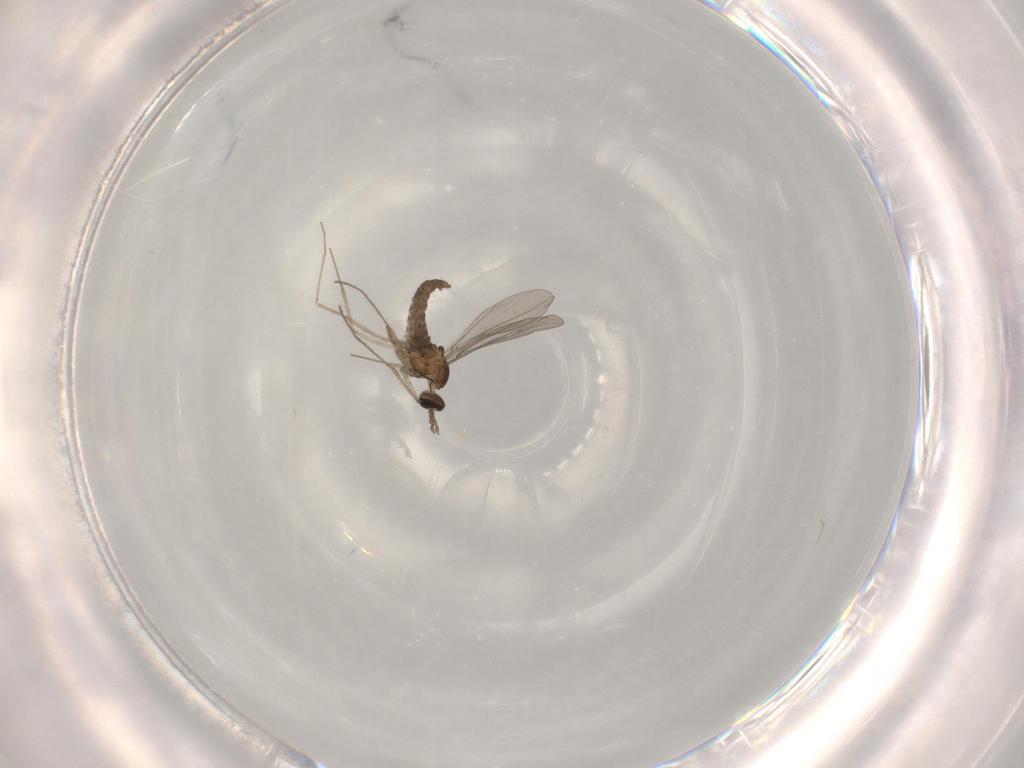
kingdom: Animalia
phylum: Arthropoda
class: Insecta
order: Diptera
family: Cecidomyiidae
